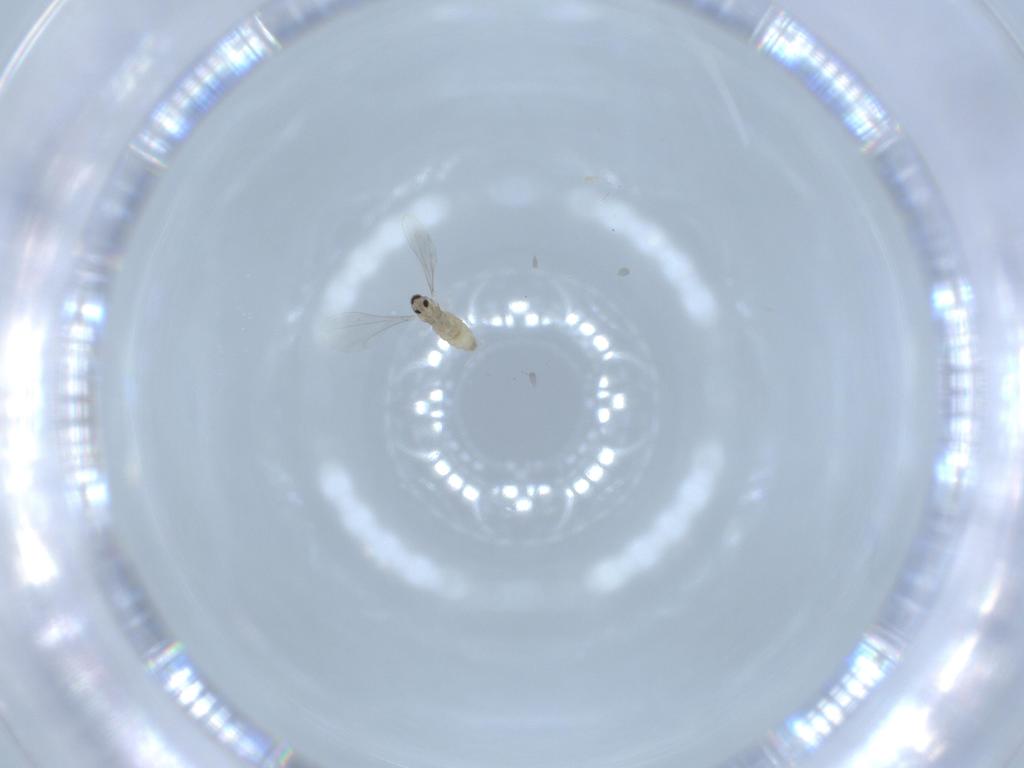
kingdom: Animalia
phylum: Arthropoda
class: Insecta
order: Diptera
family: Cecidomyiidae
